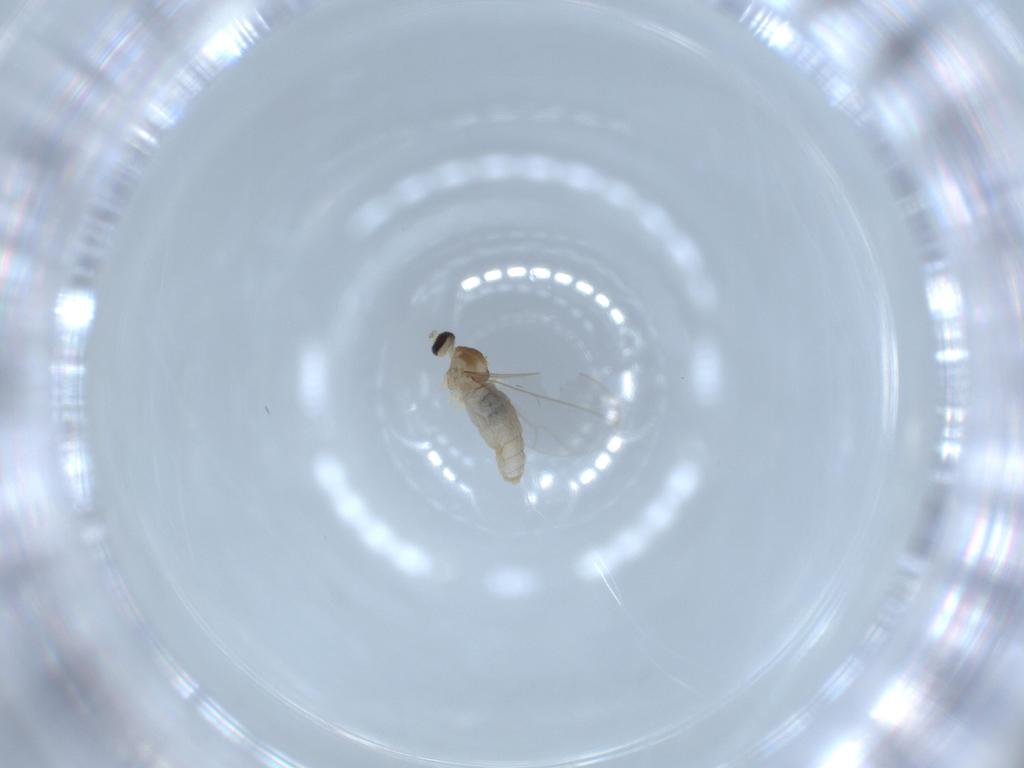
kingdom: Animalia
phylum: Arthropoda
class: Insecta
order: Diptera
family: Cecidomyiidae
